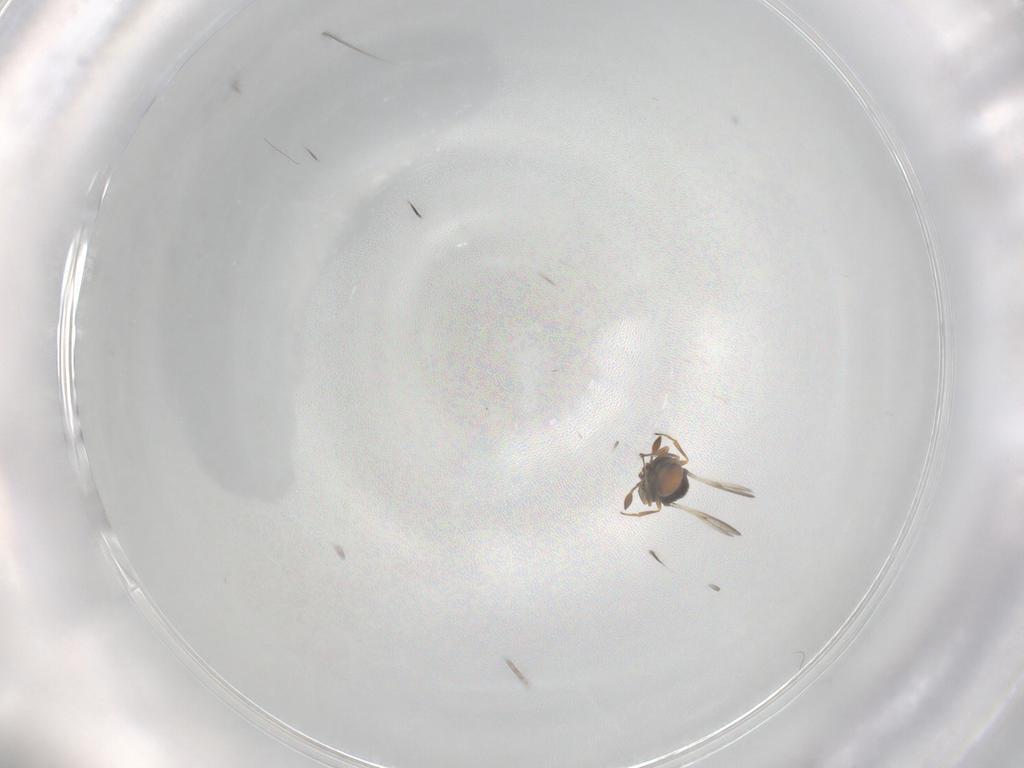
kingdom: Animalia
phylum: Arthropoda
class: Insecta
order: Hymenoptera
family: Scelionidae
